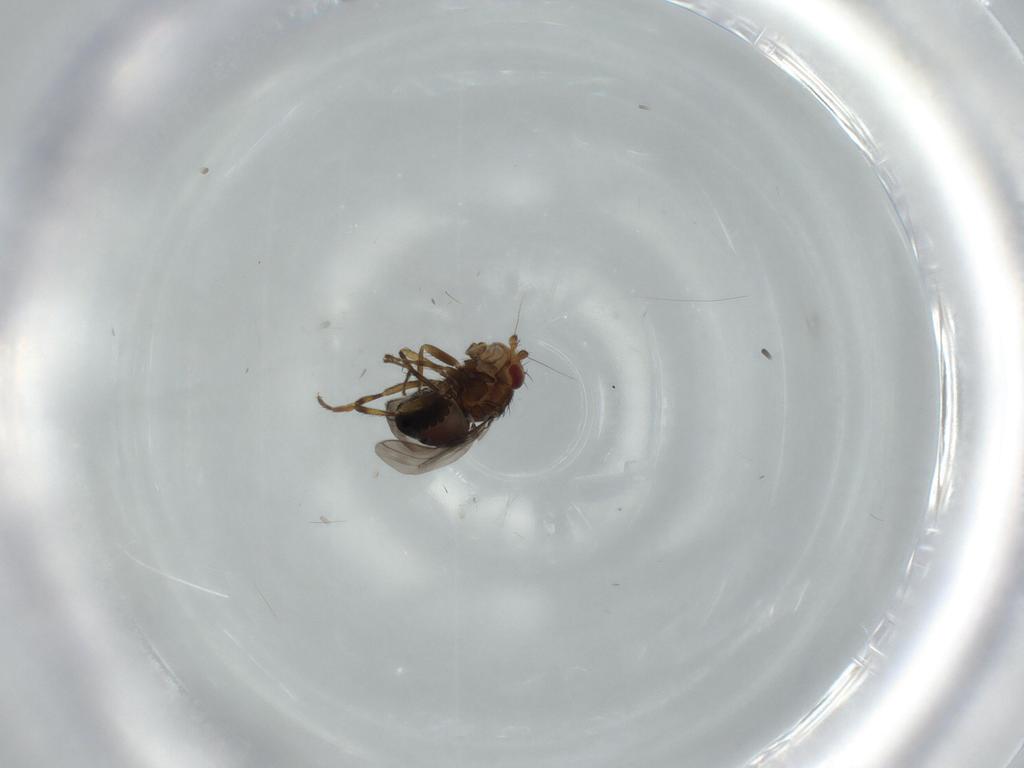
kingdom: Animalia
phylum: Arthropoda
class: Insecta
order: Diptera
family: Sphaeroceridae
